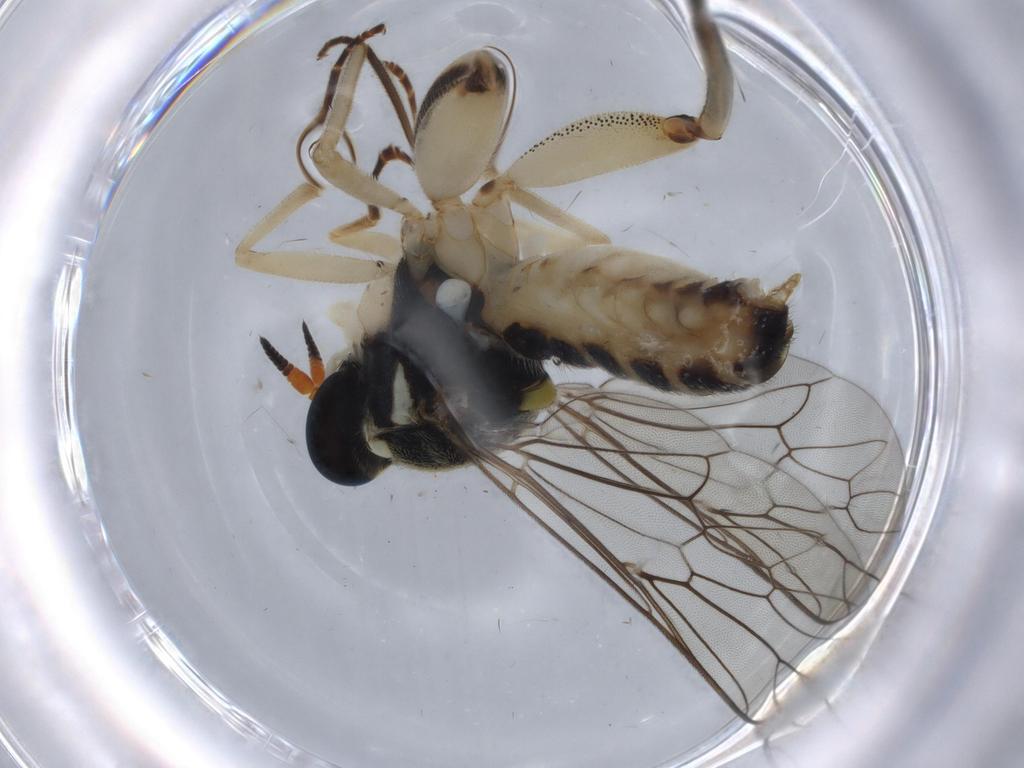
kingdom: Animalia
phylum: Arthropoda
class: Insecta
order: Diptera
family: Cecidomyiidae
